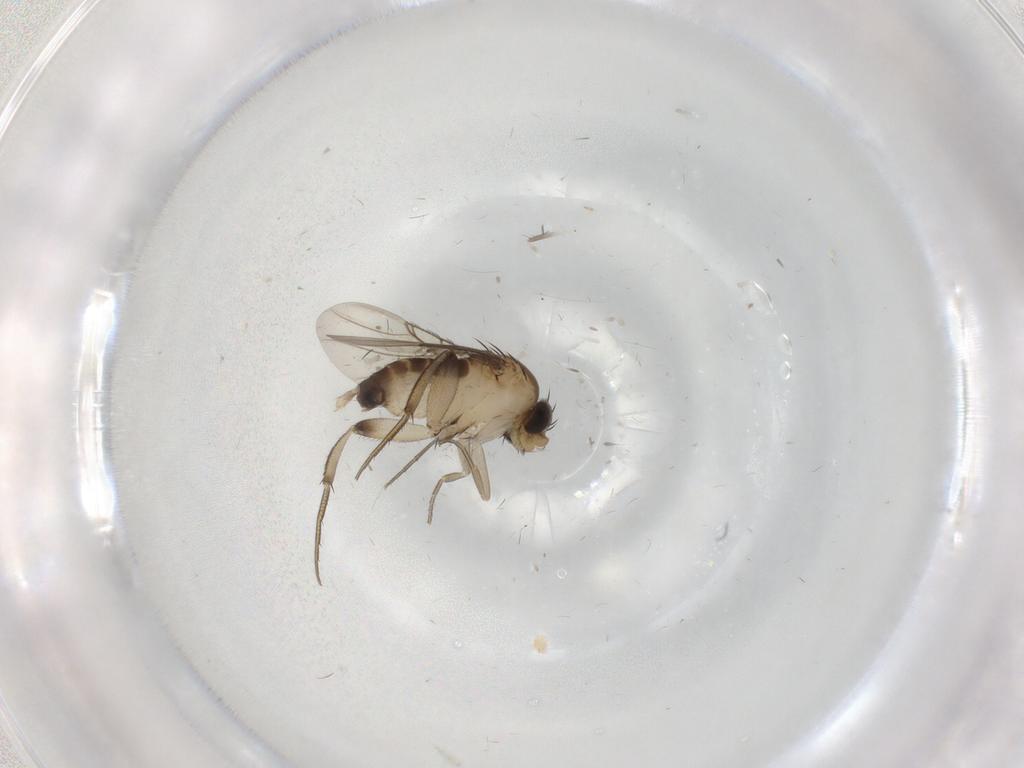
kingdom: Animalia
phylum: Arthropoda
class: Insecta
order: Diptera
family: Phoridae
